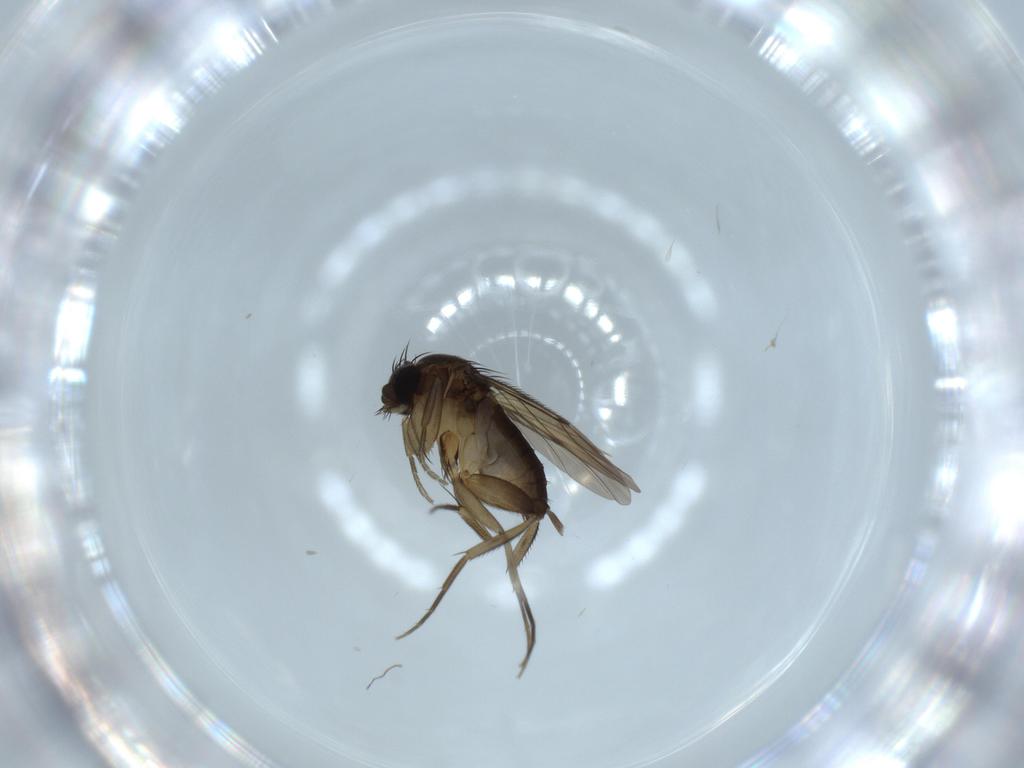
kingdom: Animalia
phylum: Arthropoda
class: Insecta
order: Diptera
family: Phoridae
